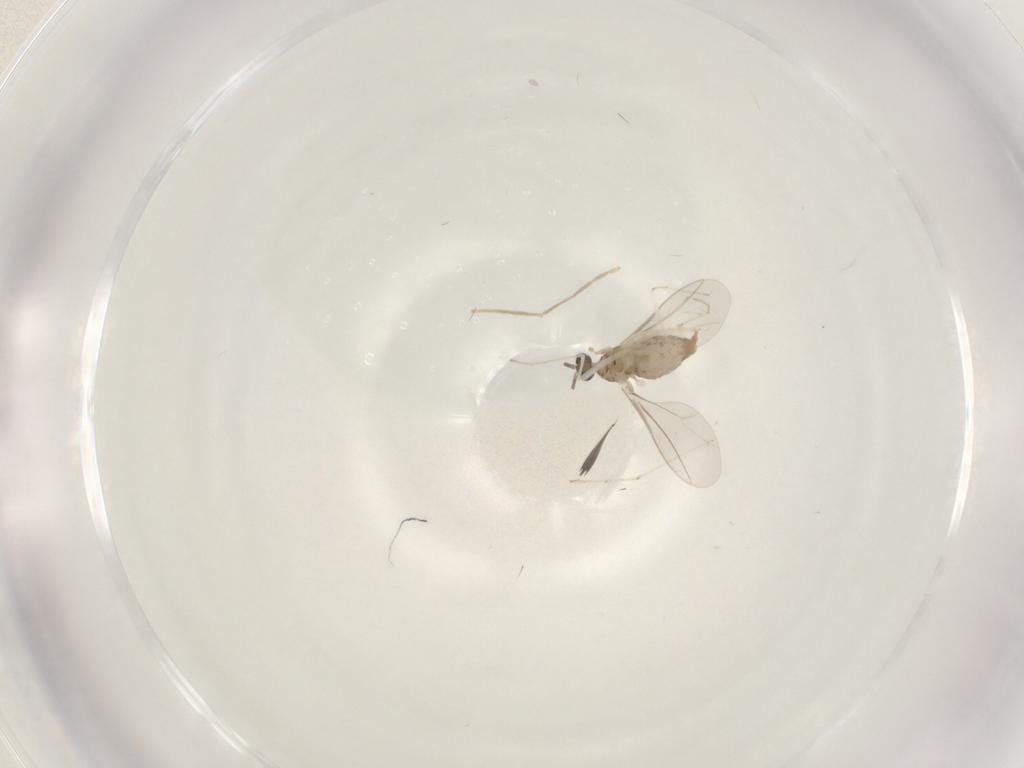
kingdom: Animalia
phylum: Arthropoda
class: Insecta
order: Diptera
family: Cecidomyiidae
